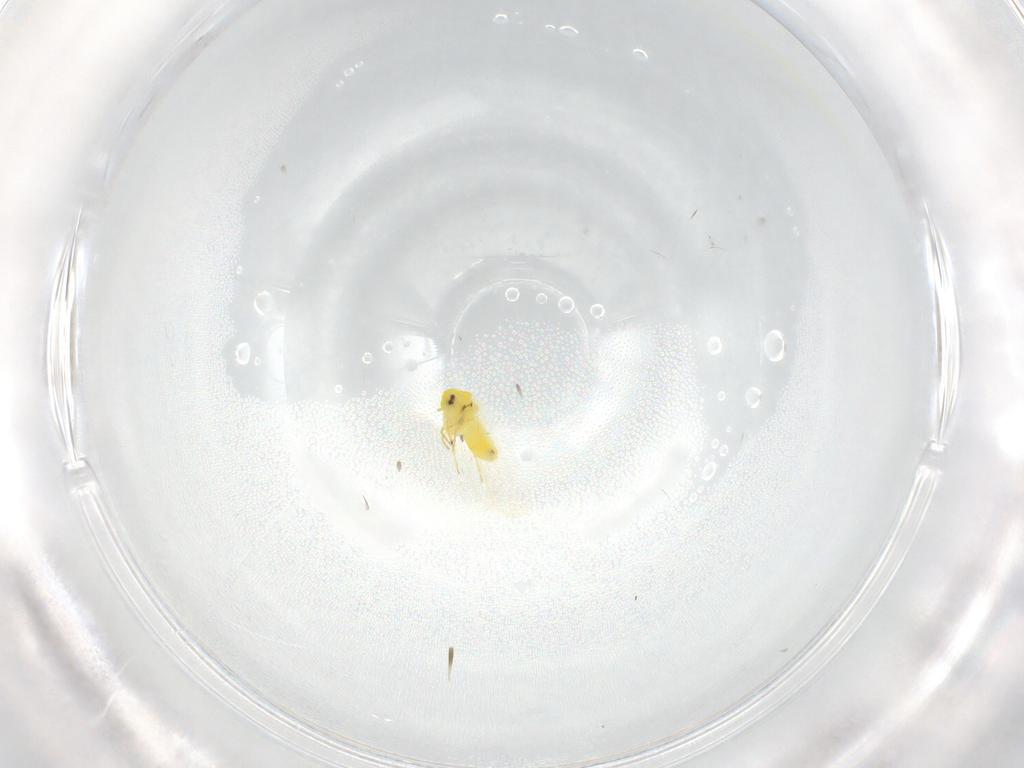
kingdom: Animalia
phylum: Arthropoda
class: Insecta
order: Hemiptera
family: Aleyrodidae
